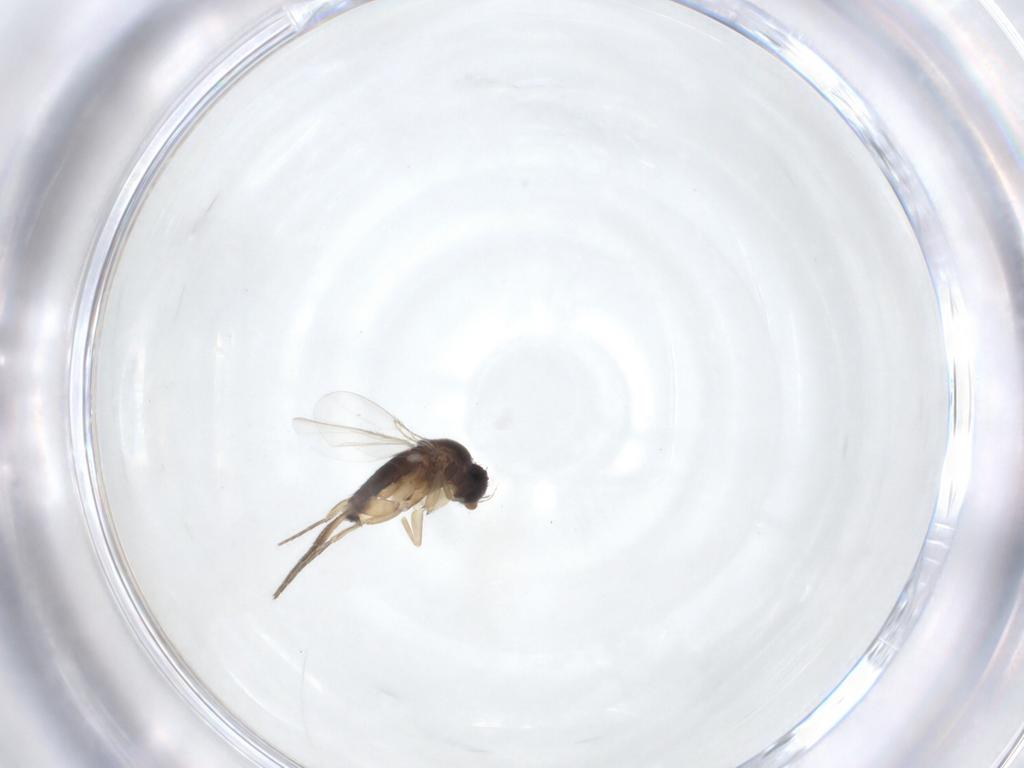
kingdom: Animalia
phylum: Arthropoda
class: Insecta
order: Diptera
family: Phoridae
